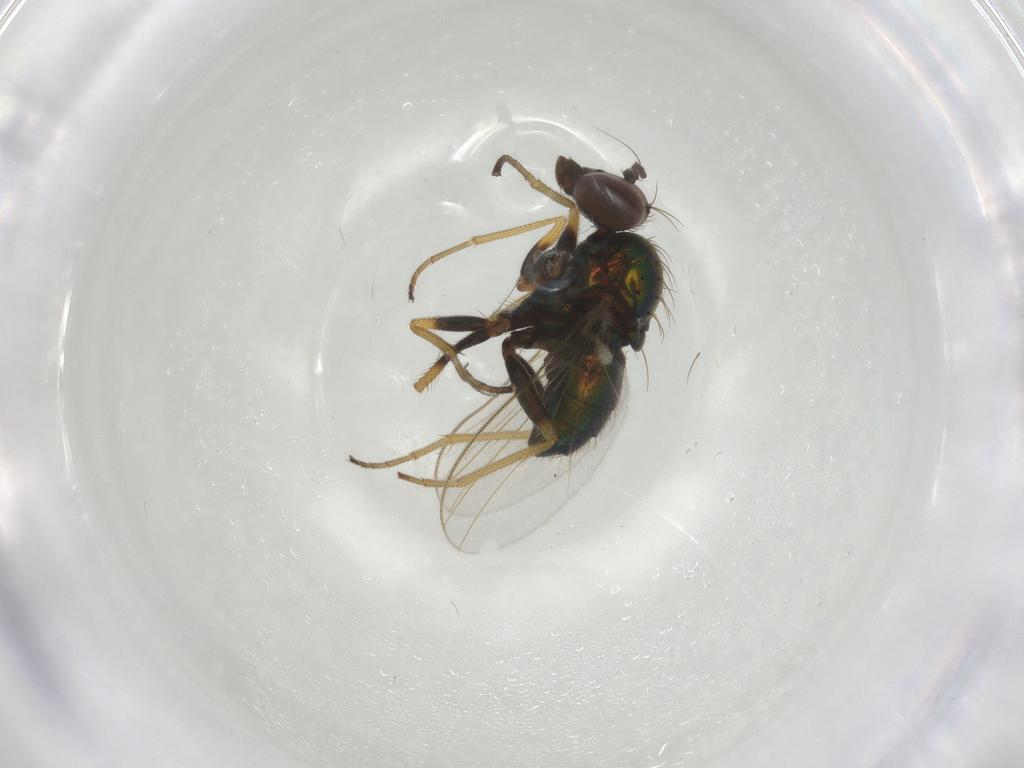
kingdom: Animalia
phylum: Arthropoda
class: Insecta
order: Diptera
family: Dolichopodidae
